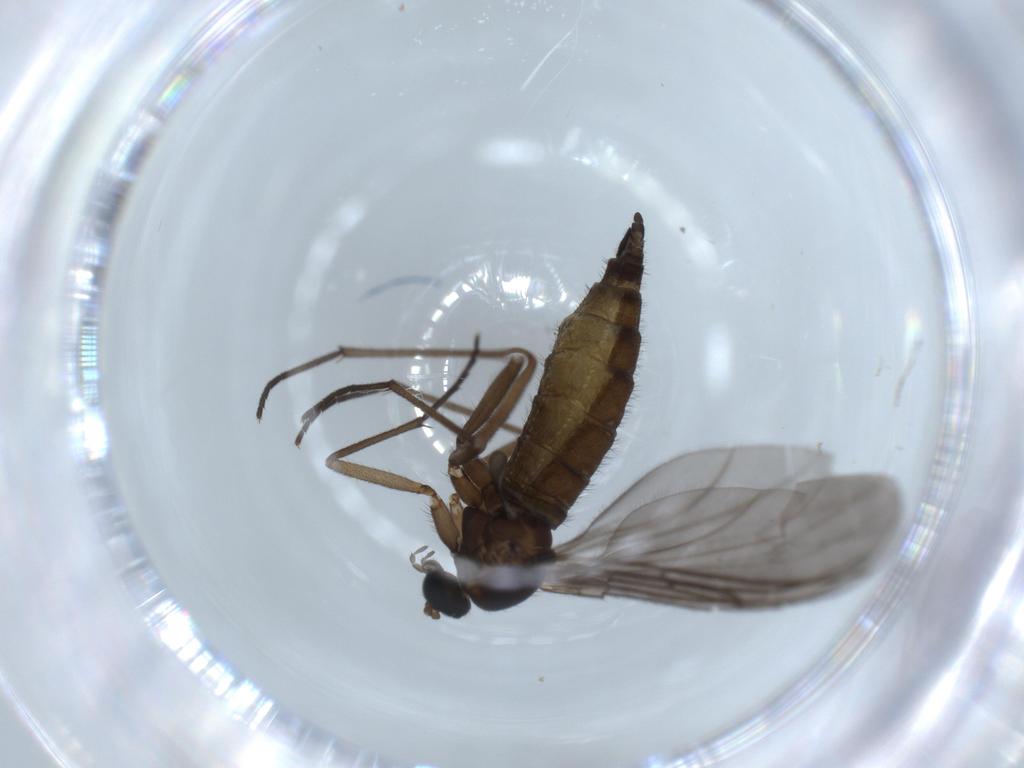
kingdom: Animalia
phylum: Arthropoda
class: Insecta
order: Diptera
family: Sciaridae
